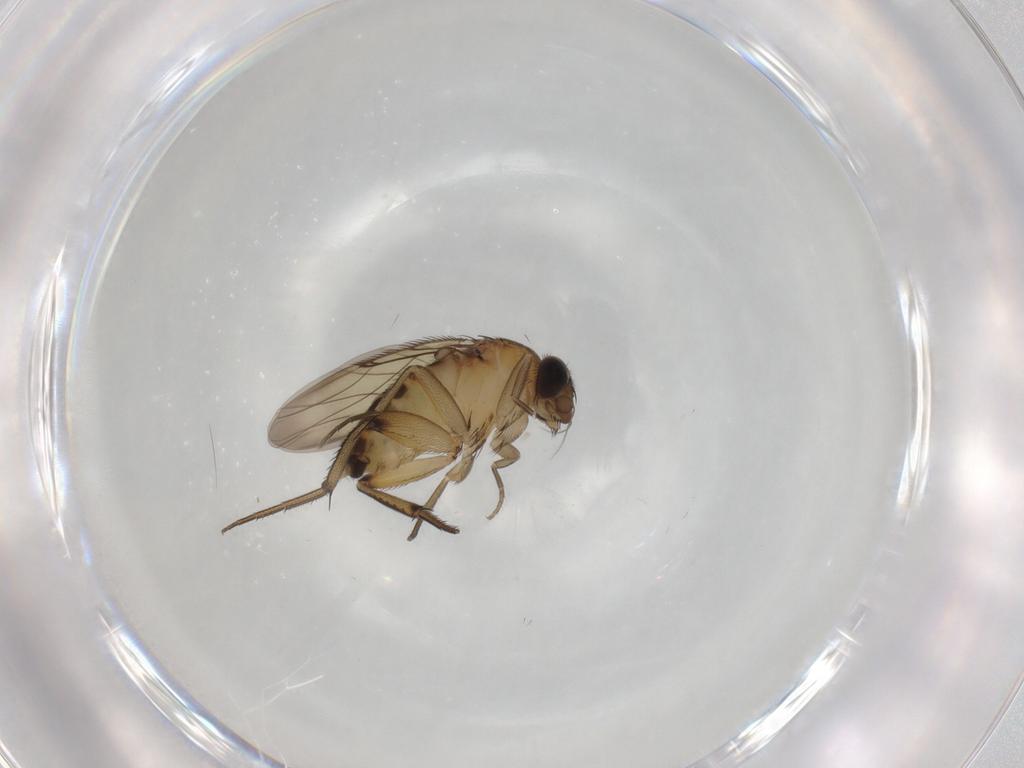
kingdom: Animalia
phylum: Arthropoda
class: Insecta
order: Diptera
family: Phoridae
